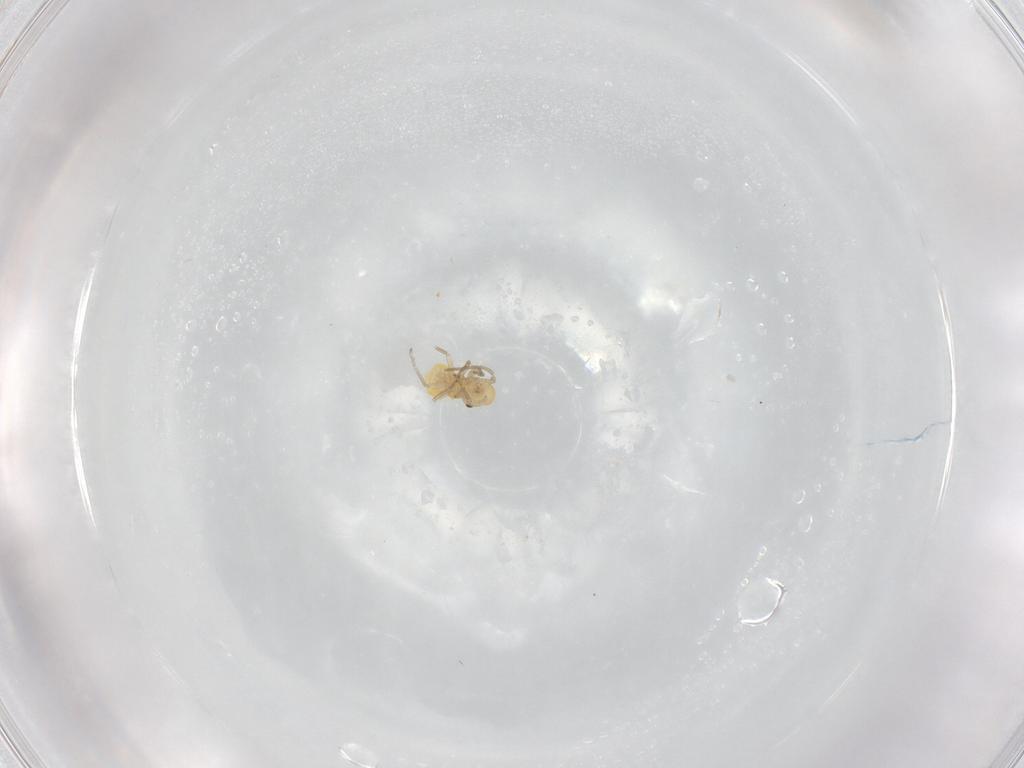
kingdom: Animalia
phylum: Arthropoda
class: Insecta
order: Psocodea
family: Caeciliusidae
